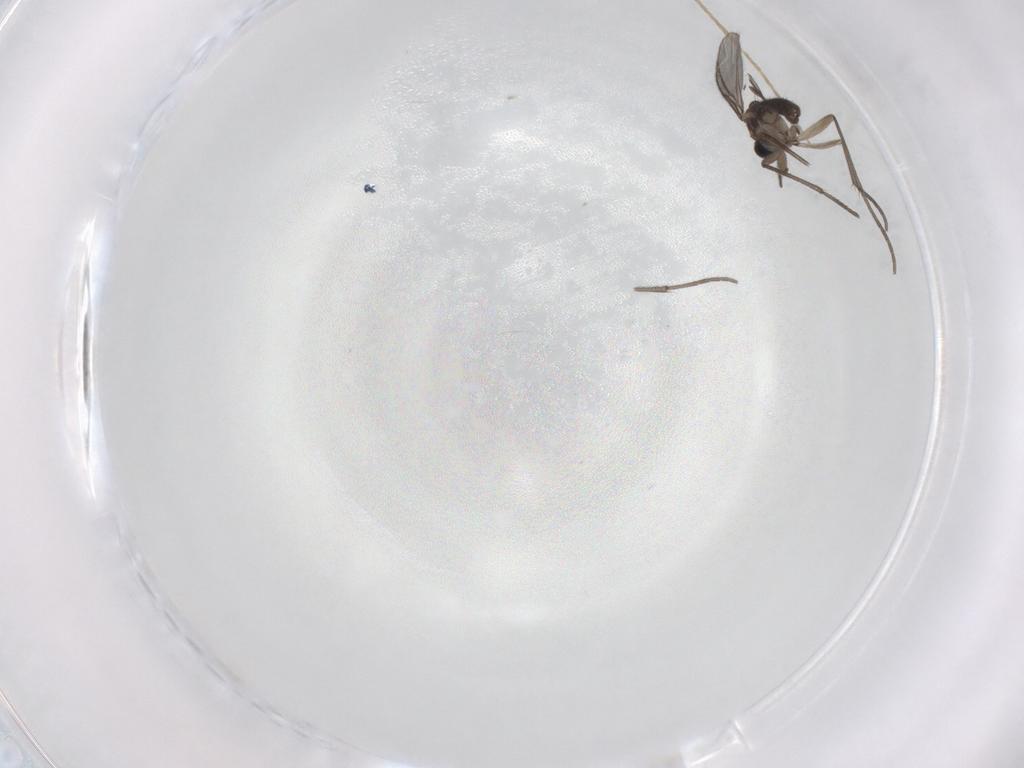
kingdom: Animalia
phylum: Arthropoda
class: Insecta
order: Diptera
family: Sciaridae
